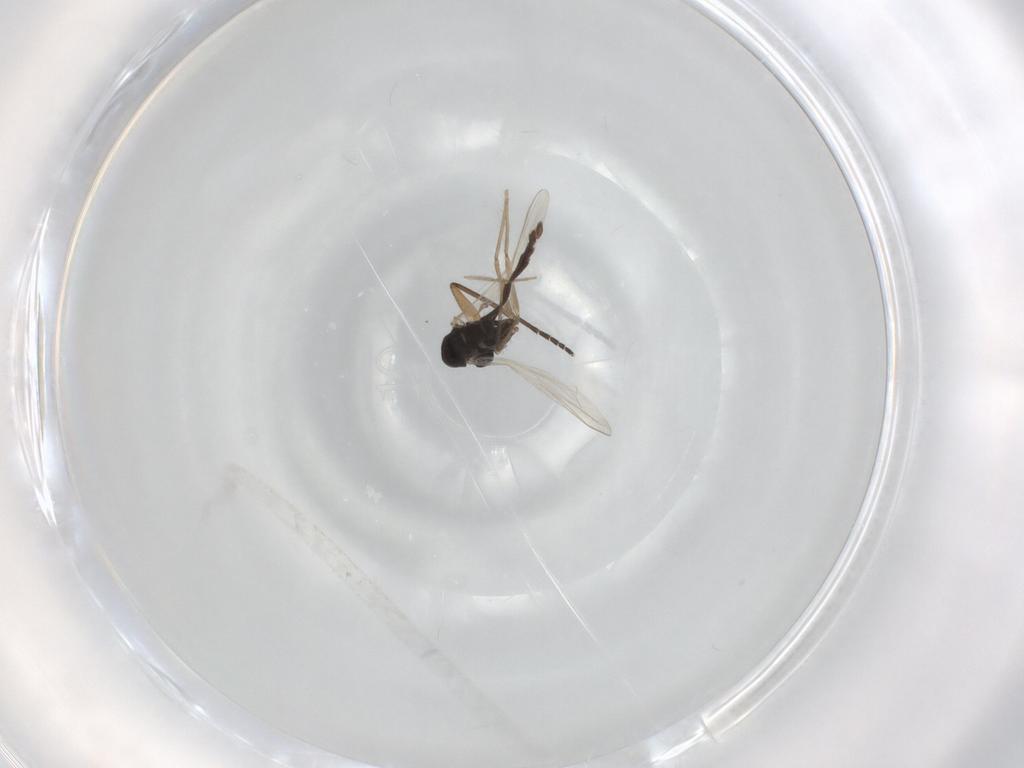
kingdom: Animalia
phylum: Arthropoda
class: Insecta
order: Diptera
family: Chironomidae
